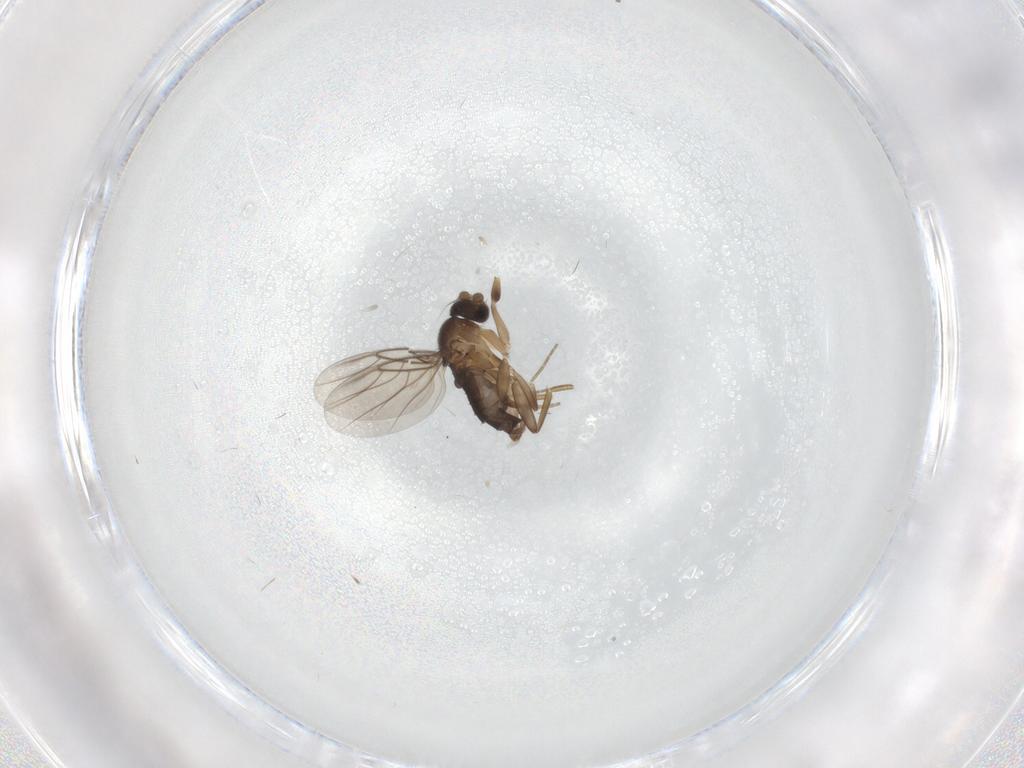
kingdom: Animalia
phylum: Arthropoda
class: Insecta
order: Diptera
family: Phoridae
